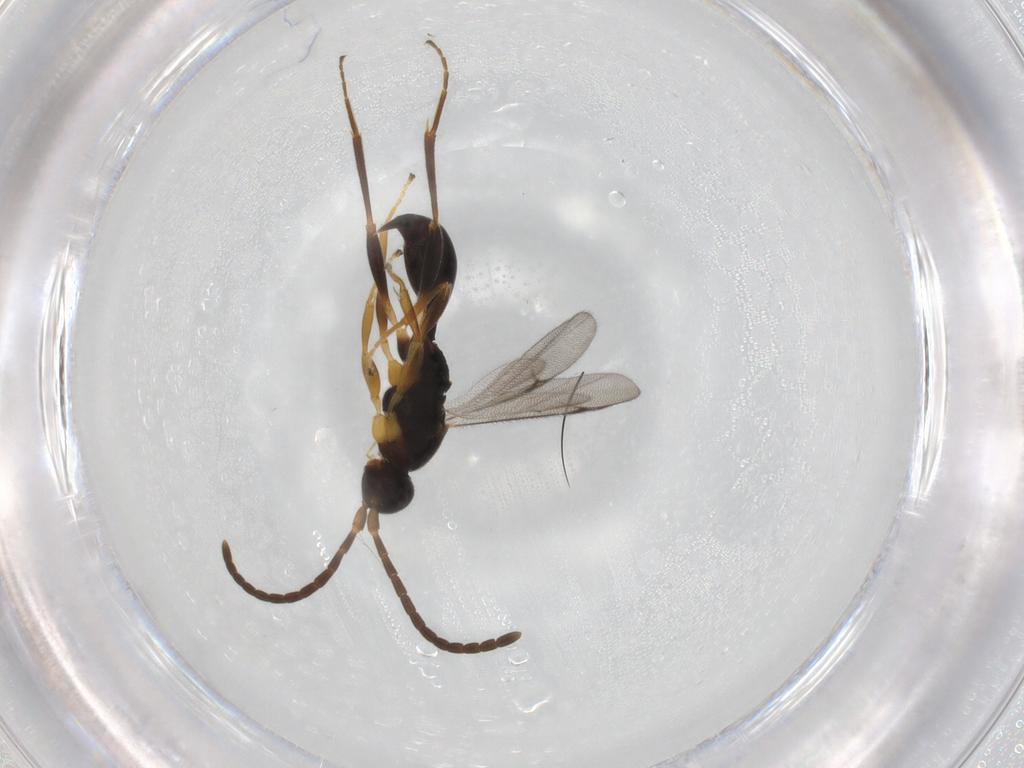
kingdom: Animalia
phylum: Arthropoda
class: Insecta
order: Hymenoptera
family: Proctotrupidae
